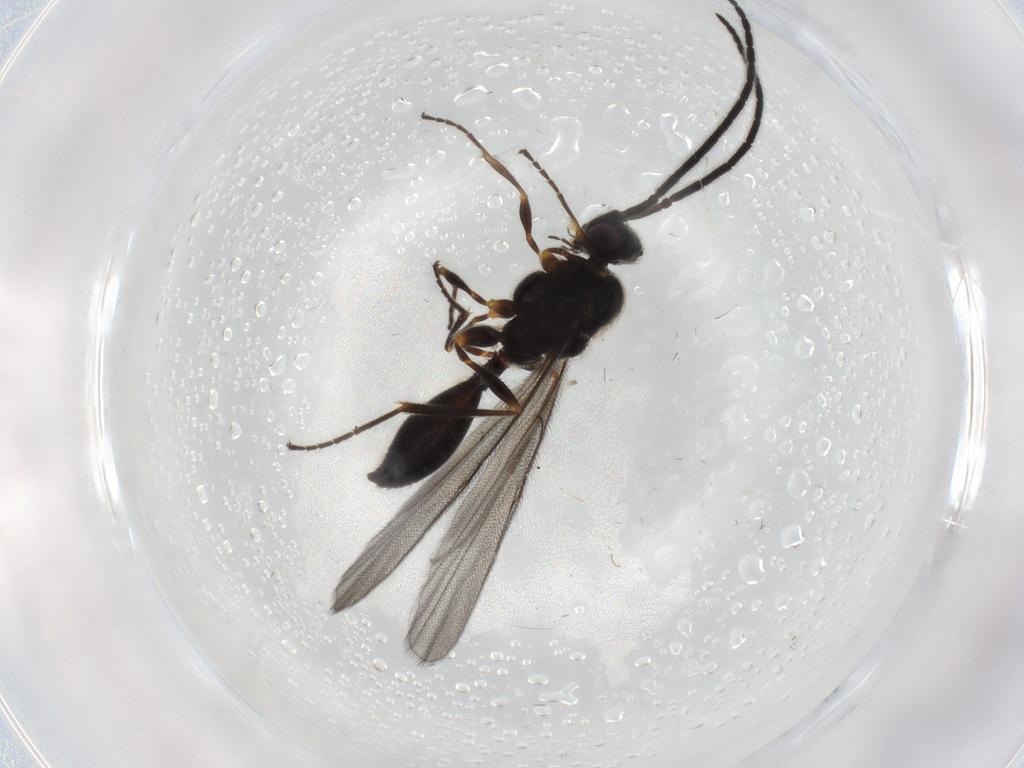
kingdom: Animalia
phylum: Arthropoda
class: Insecta
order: Hymenoptera
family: Diapriidae
